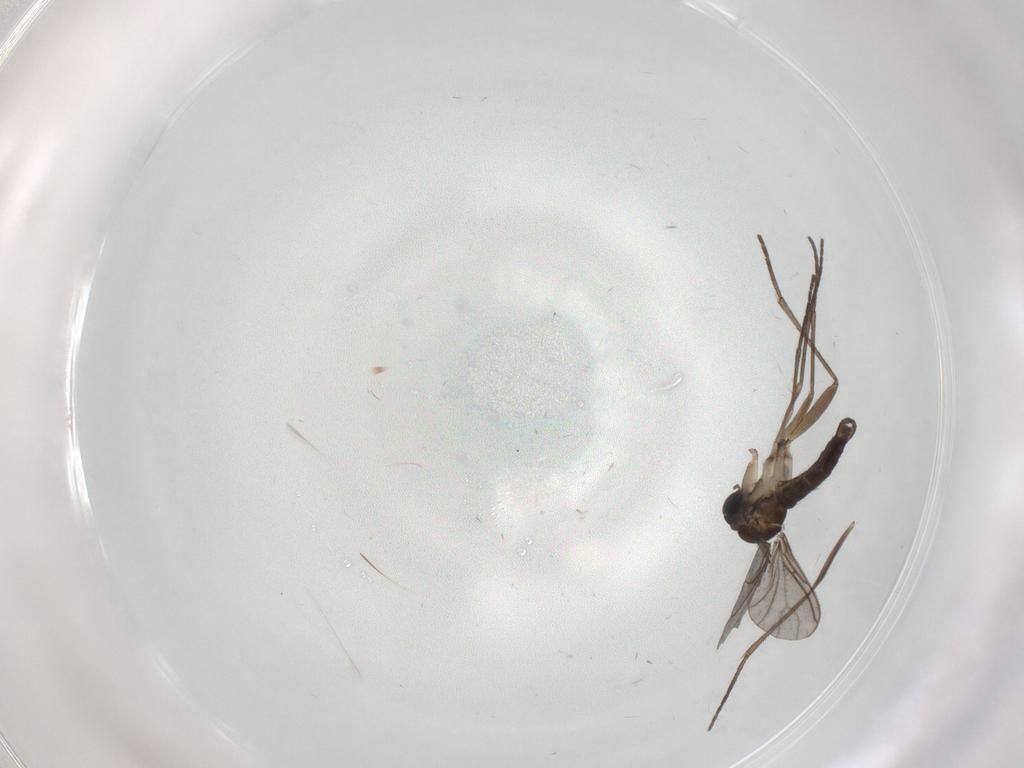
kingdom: Animalia
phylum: Arthropoda
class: Insecta
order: Diptera
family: Sciaridae
